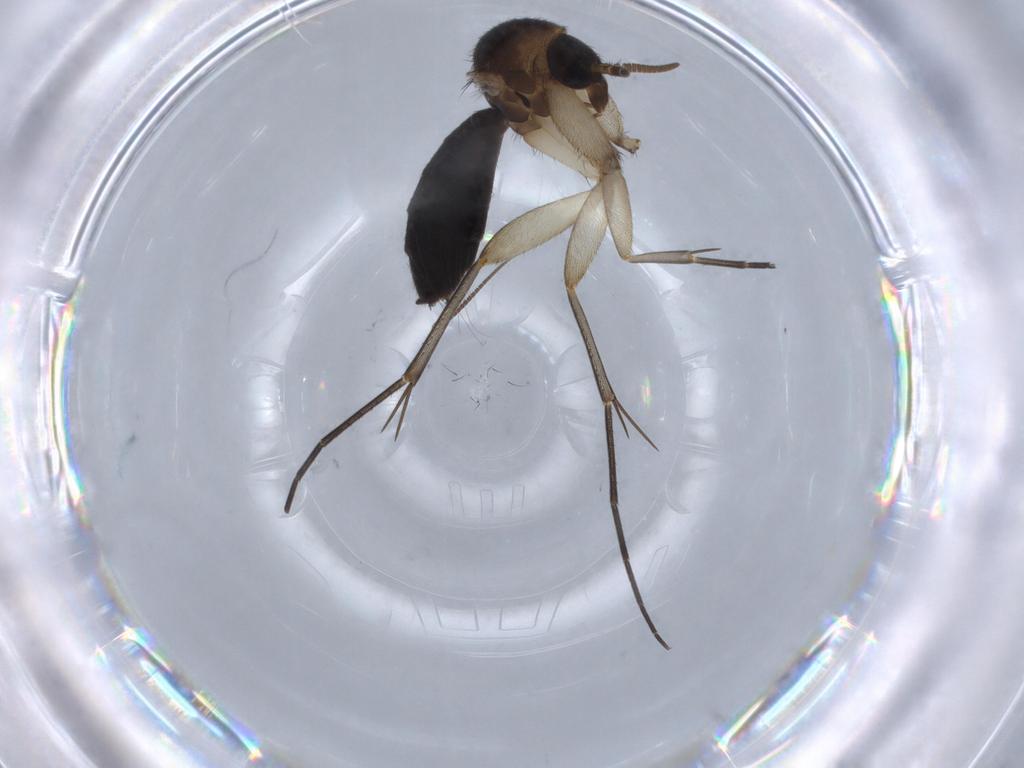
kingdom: Animalia
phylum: Arthropoda
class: Insecta
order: Diptera
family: Mycetophilidae
